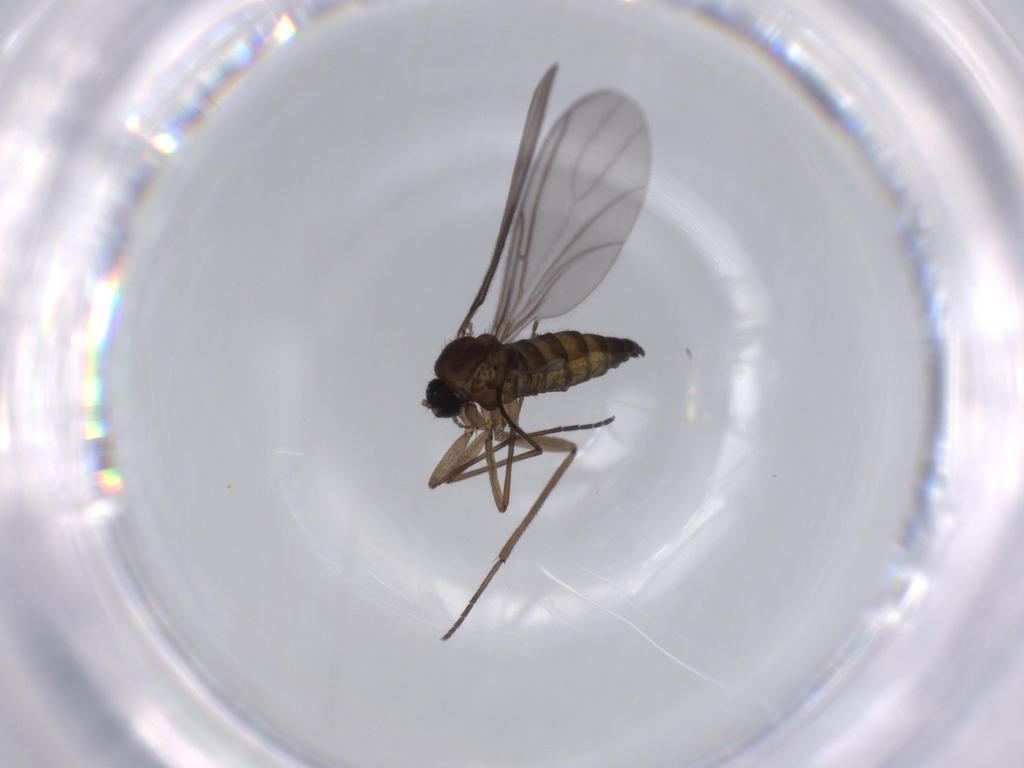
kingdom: Animalia
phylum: Arthropoda
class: Insecta
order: Diptera
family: Sciaridae
